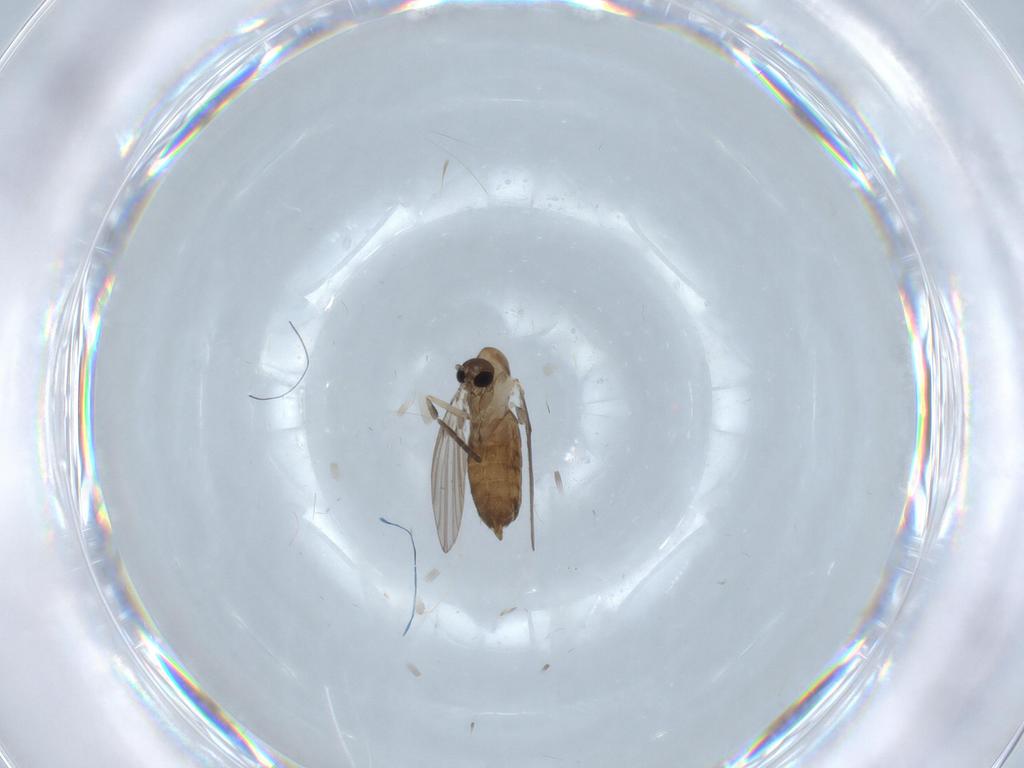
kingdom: Animalia
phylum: Arthropoda
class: Insecta
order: Diptera
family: Cecidomyiidae
